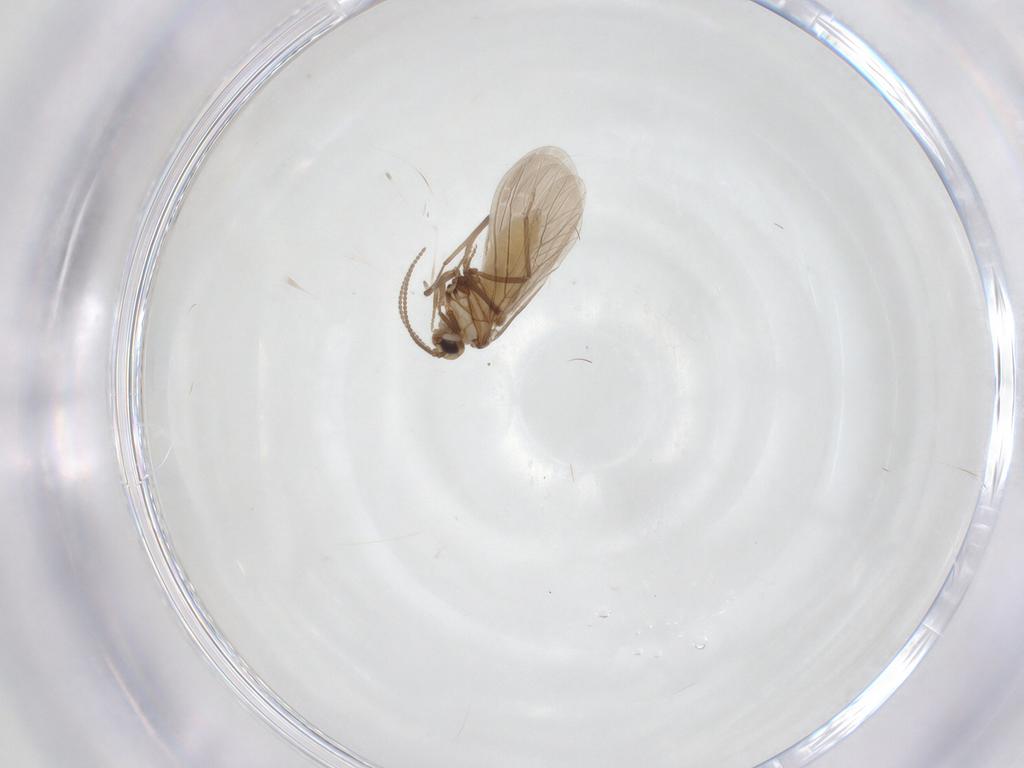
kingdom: Animalia
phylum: Arthropoda
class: Insecta
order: Neuroptera
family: Coniopterygidae
